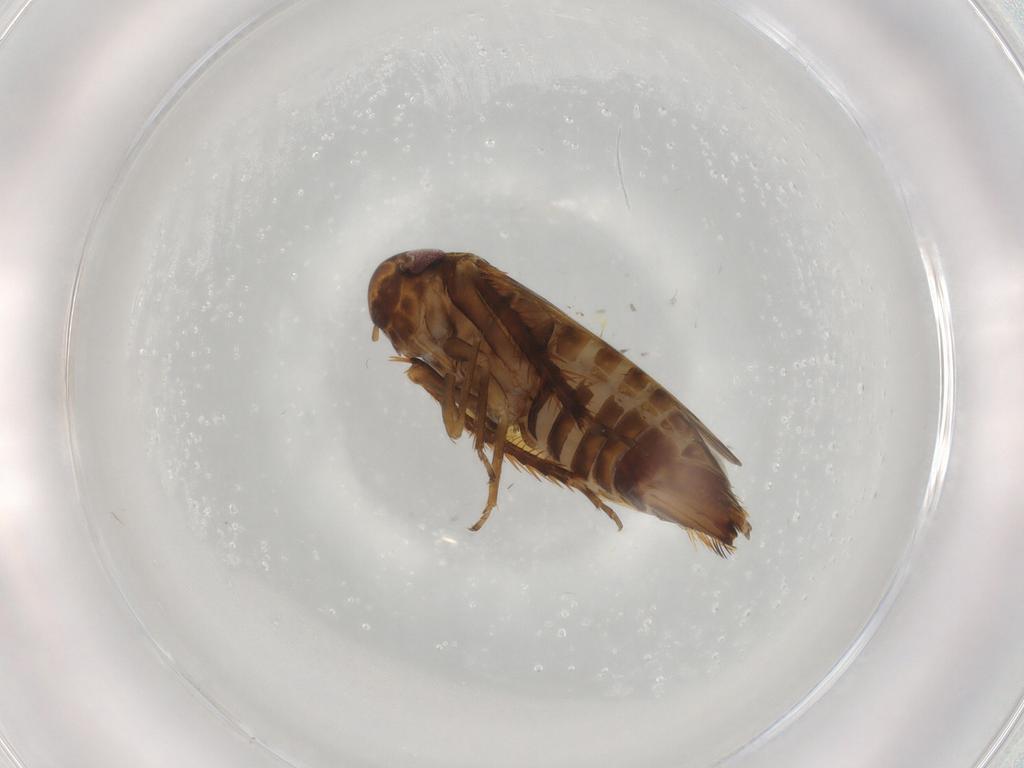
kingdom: Animalia
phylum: Arthropoda
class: Insecta
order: Hemiptera
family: Cicadellidae
